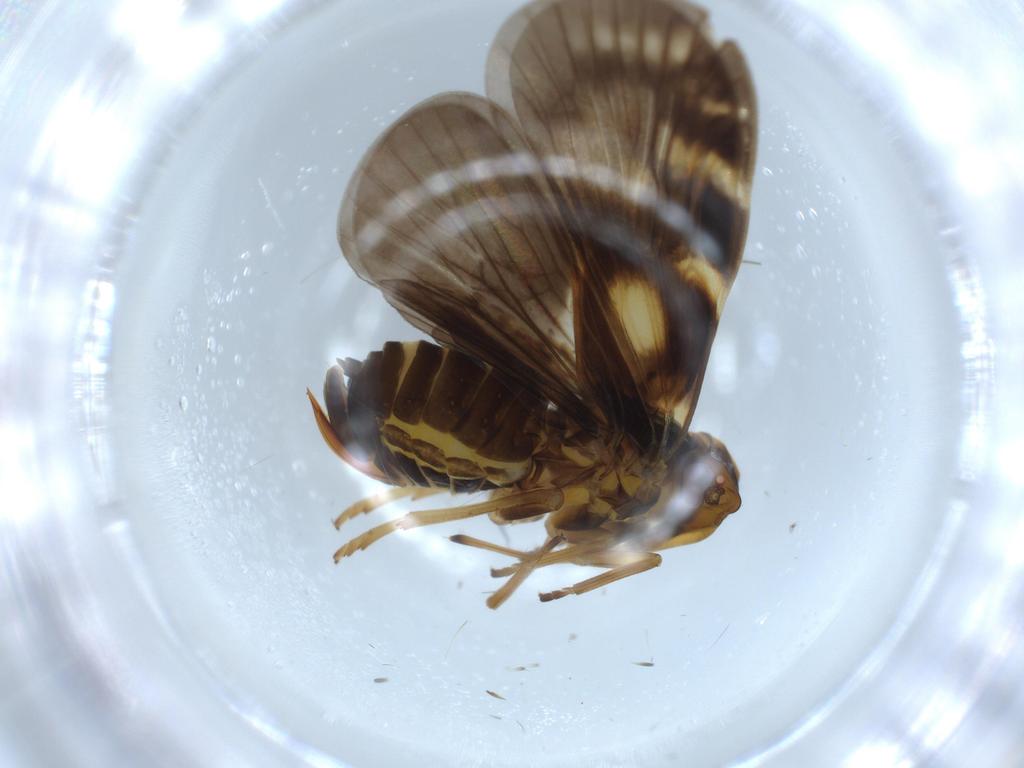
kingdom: Animalia
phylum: Arthropoda
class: Insecta
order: Hemiptera
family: Cixiidae
